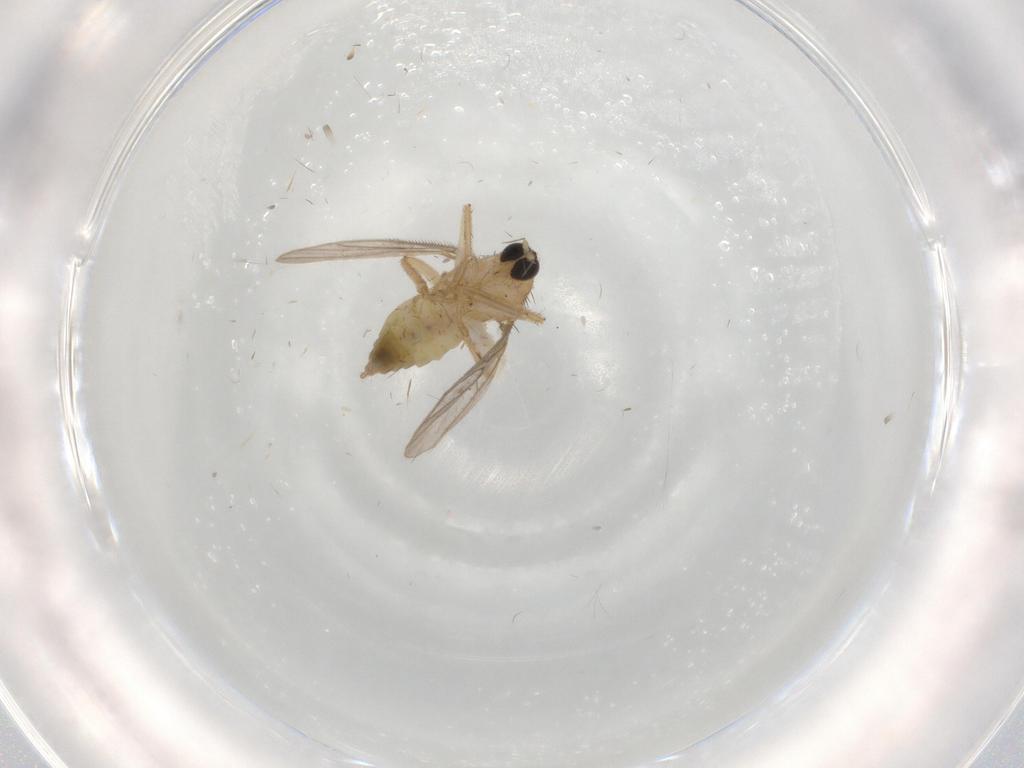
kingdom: Animalia
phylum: Arthropoda
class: Insecta
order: Diptera
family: Hybotidae
